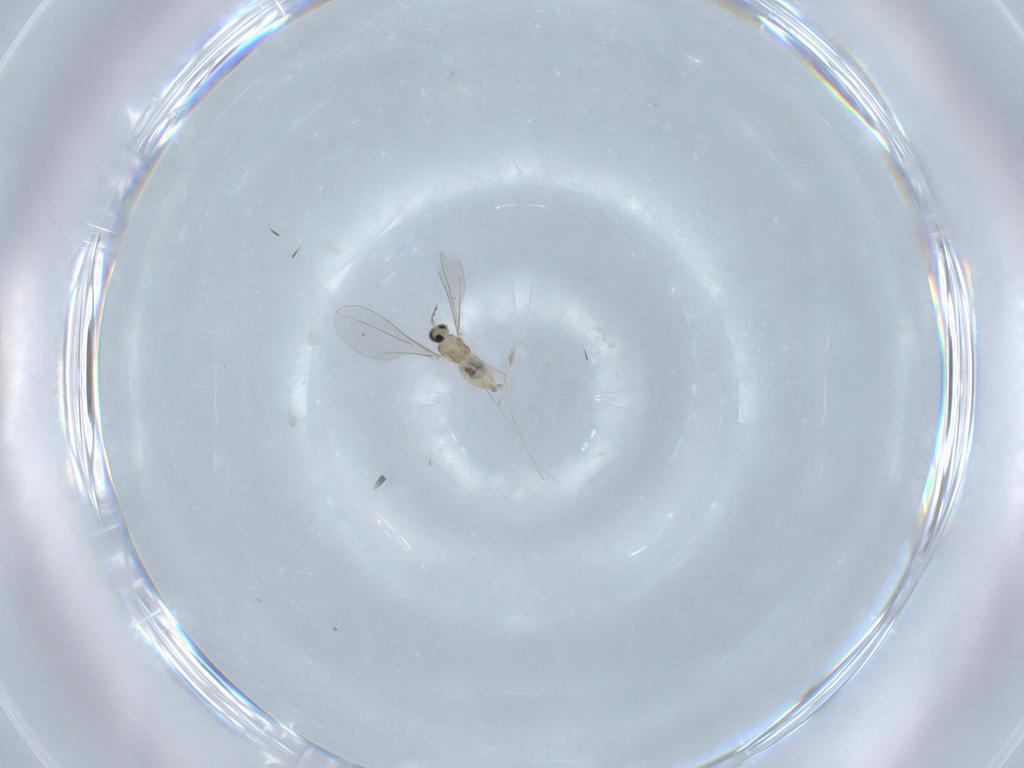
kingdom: Animalia
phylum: Arthropoda
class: Insecta
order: Diptera
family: Cecidomyiidae
